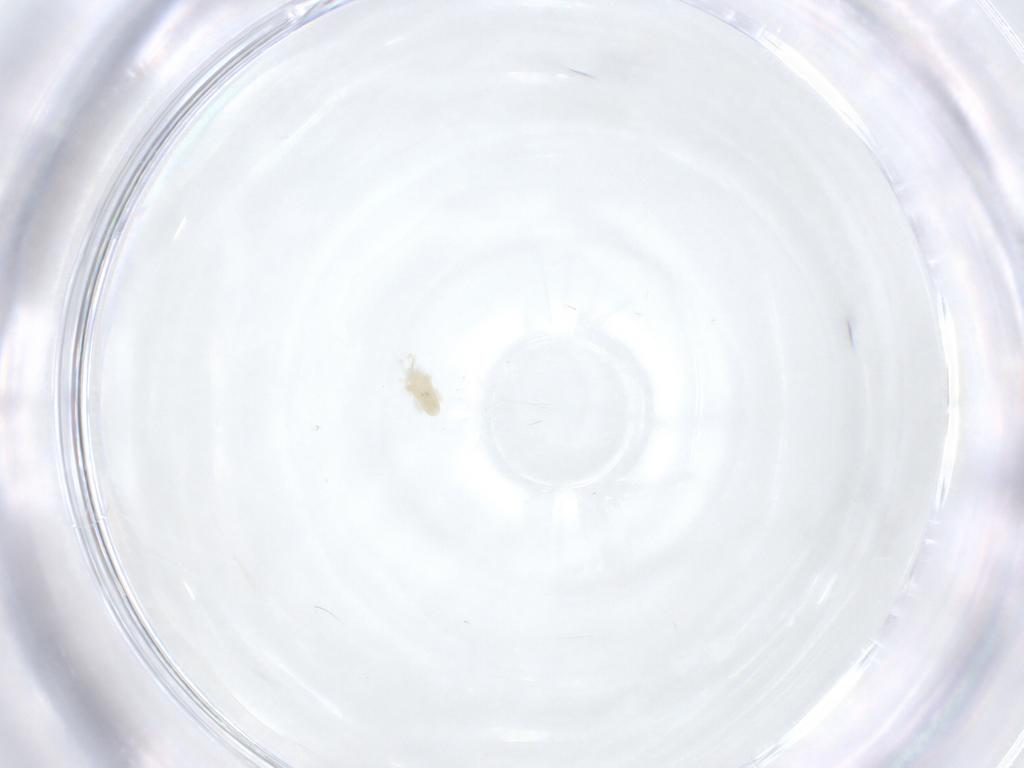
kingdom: Animalia
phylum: Arthropoda
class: Arachnida
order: Trombidiformes
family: Eupodidae
